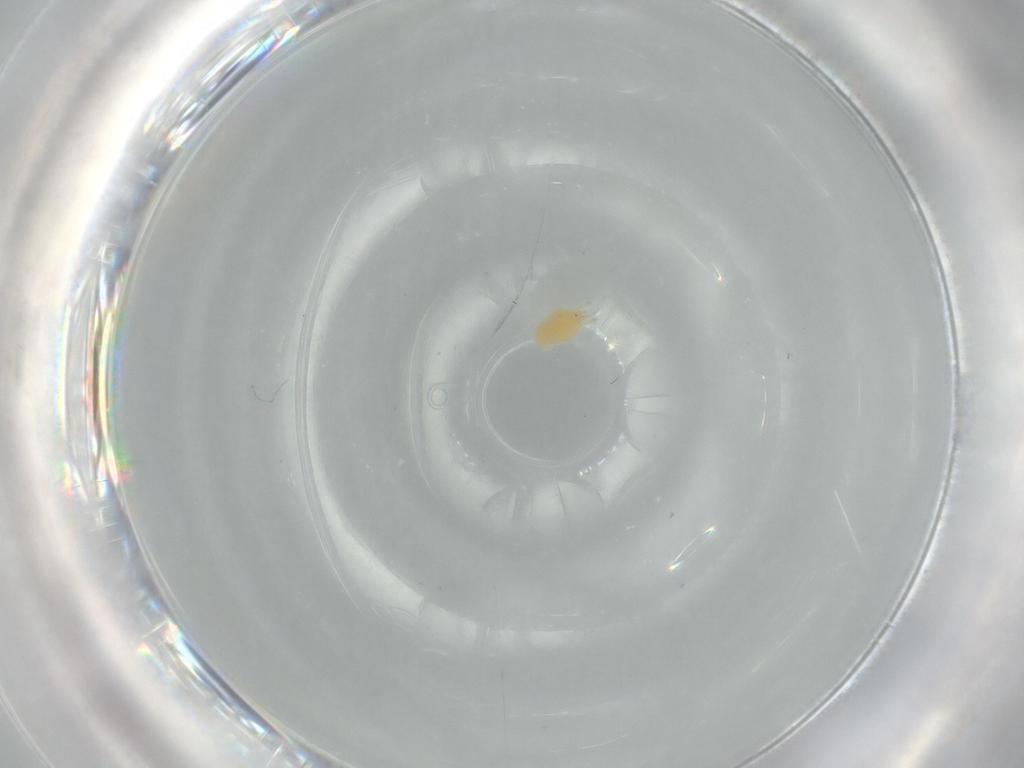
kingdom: Animalia
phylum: Arthropoda
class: Arachnida
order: Trombidiformes
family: Stigmaeidae
